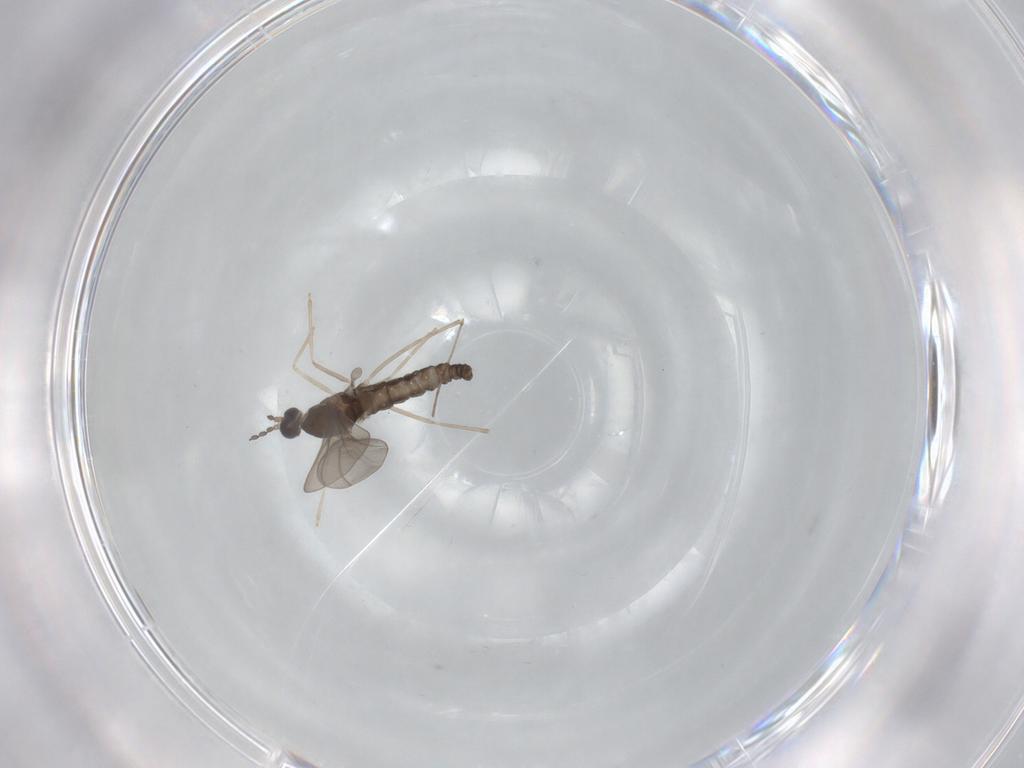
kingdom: Animalia
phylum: Arthropoda
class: Insecta
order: Diptera
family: Cecidomyiidae
